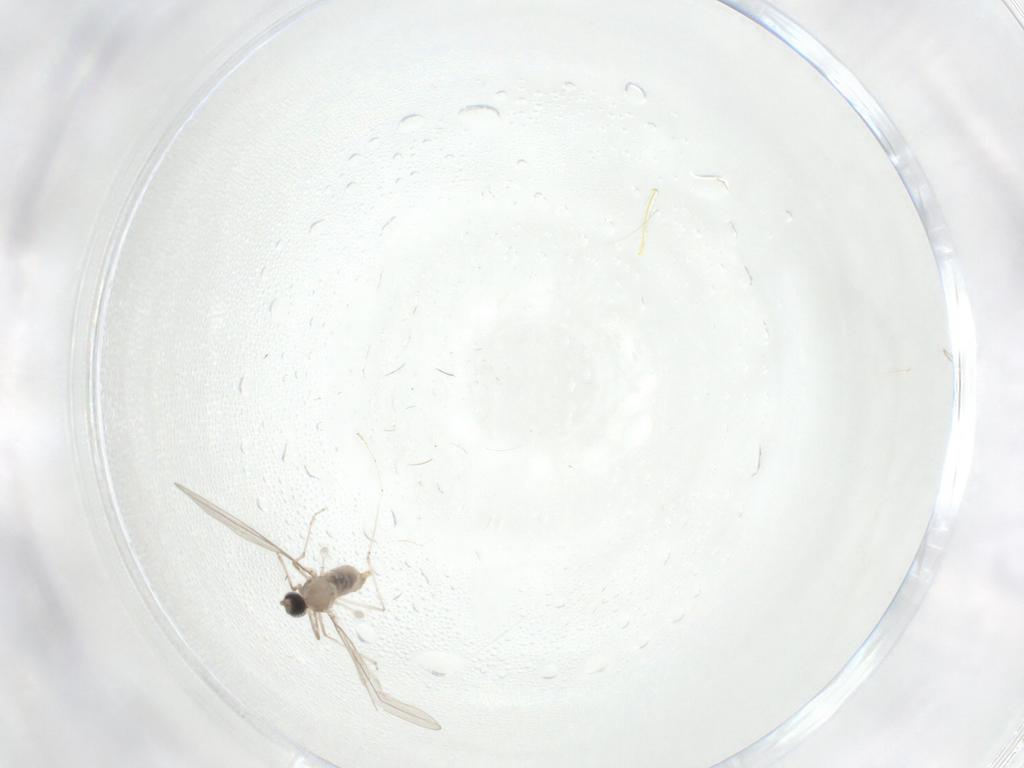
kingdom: Animalia
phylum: Arthropoda
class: Insecta
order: Diptera
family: Cecidomyiidae
